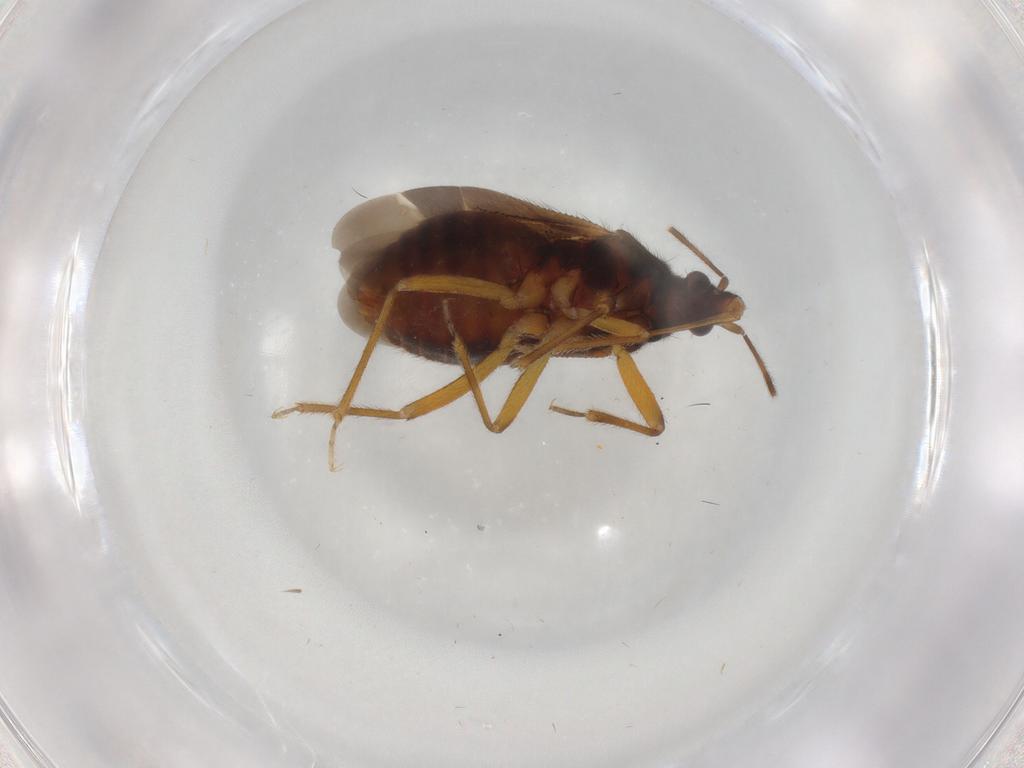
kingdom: Animalia
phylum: Arthropoda
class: Insecta
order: Hemiptera
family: Anthocoridae
